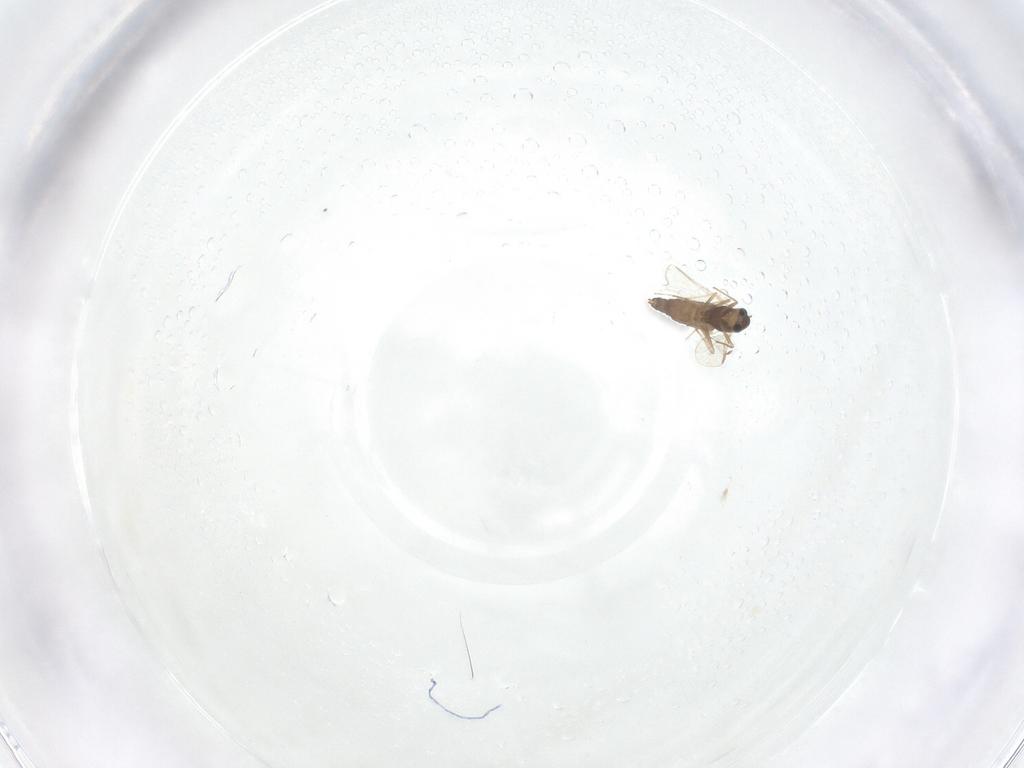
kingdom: Animalia
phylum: Arthropoda
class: Insecta
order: Diptera
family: Chironomidae
